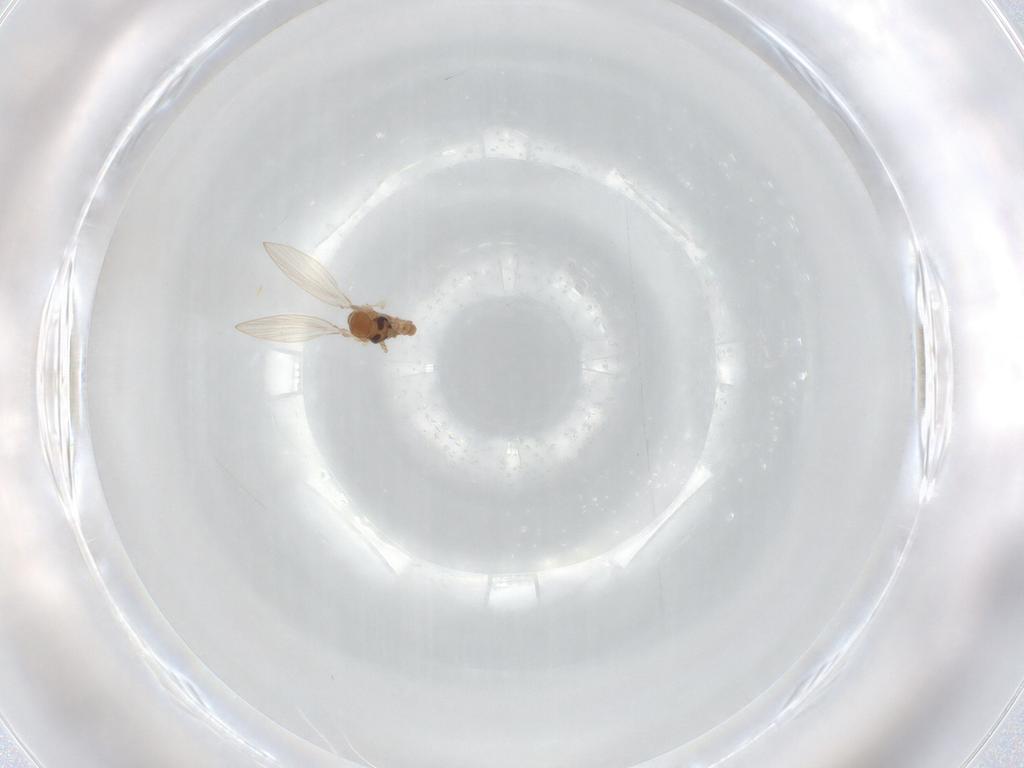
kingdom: Animalia
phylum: Arthropoda
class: Insecta
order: Diptera
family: Psychodidae
